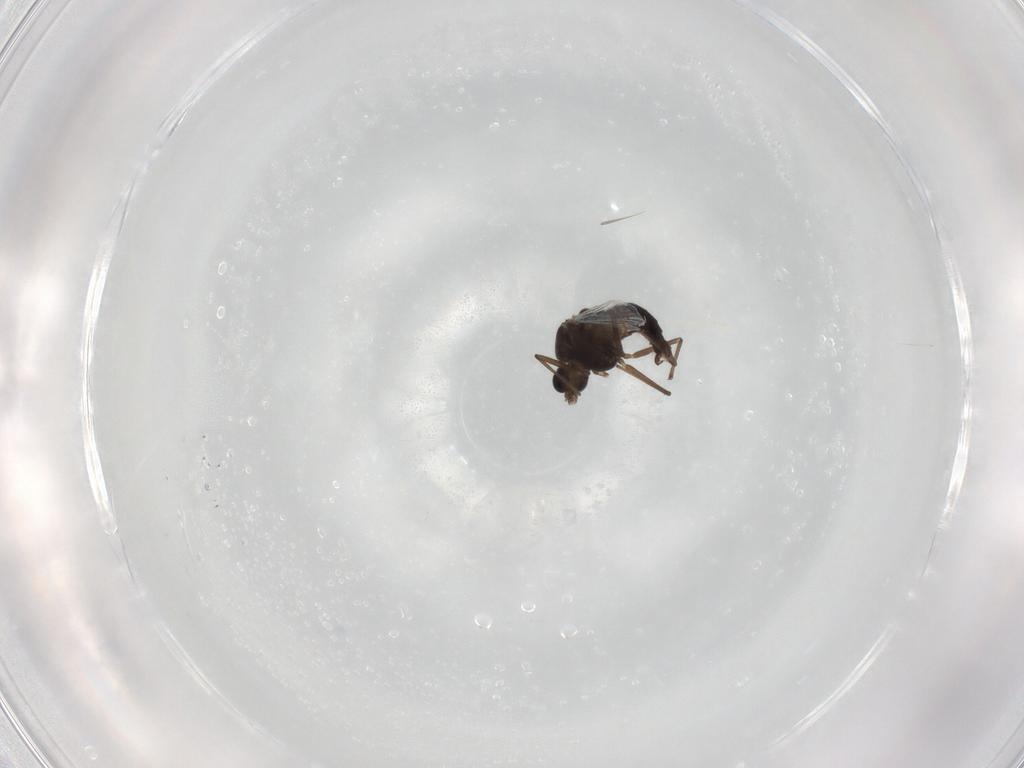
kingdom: Animalia
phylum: Arthropoda
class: Insecta
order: Diptera
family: Chironomidae
